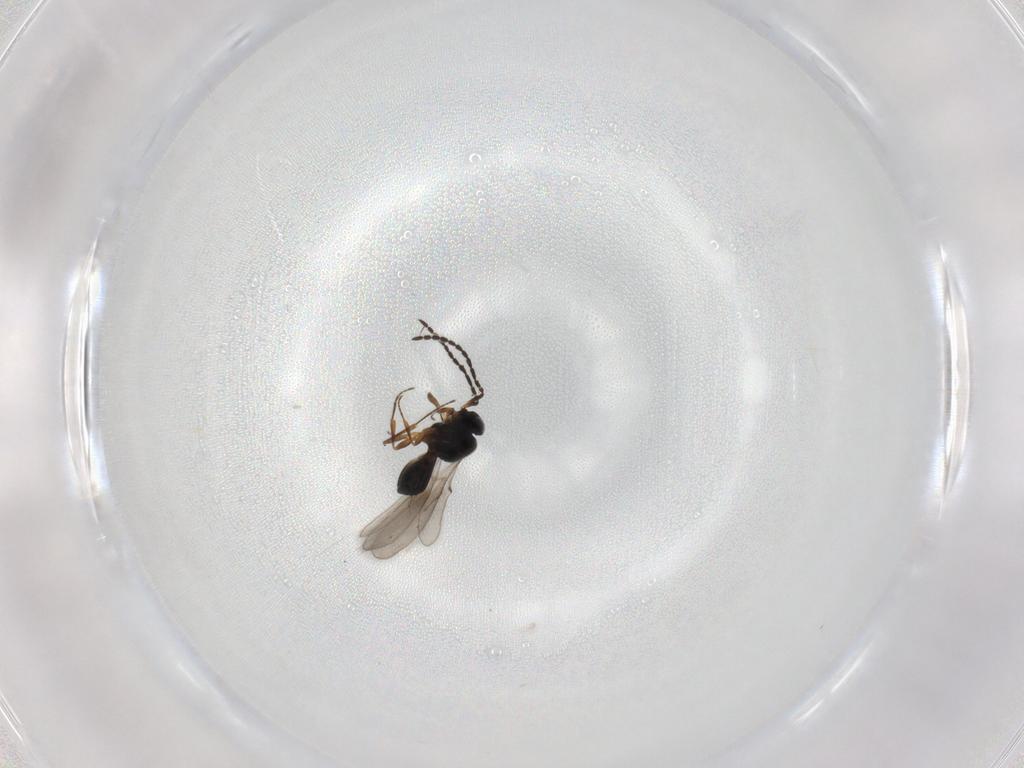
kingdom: Animalia
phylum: Arthropoda
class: Insecta
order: Hymenoptera
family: Scelionidae
